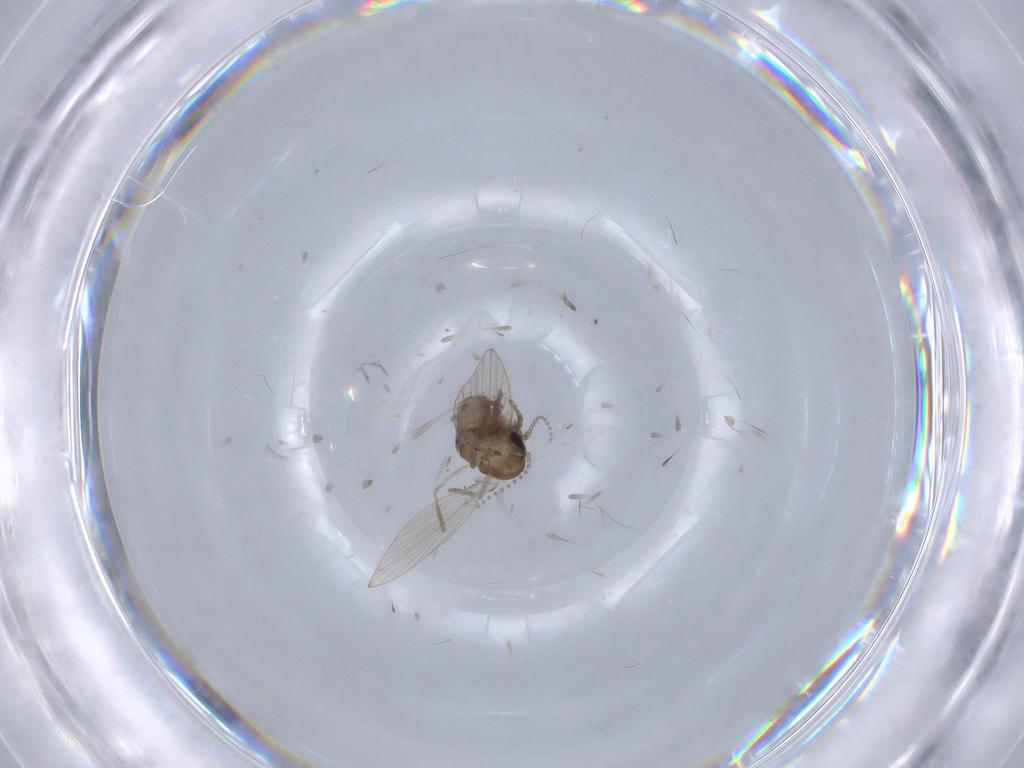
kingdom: Animalia
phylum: Arthropoda
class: Insecta
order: Diptera
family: Psychodidae
